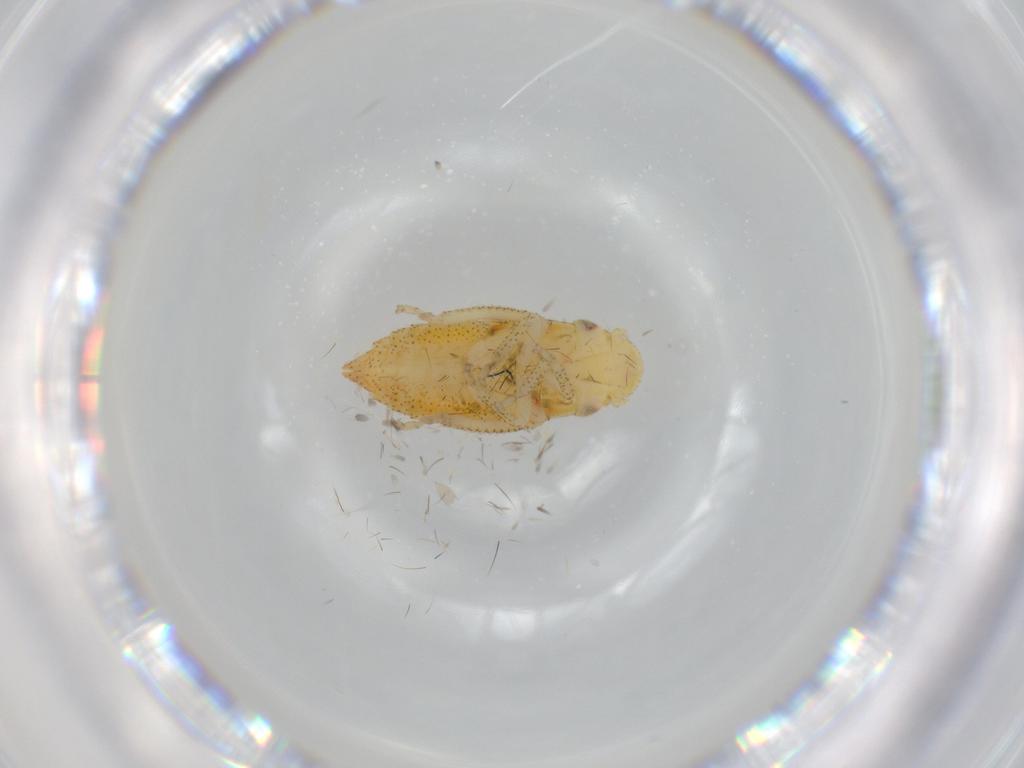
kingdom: Animalia
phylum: Arthropoda
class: Insecta
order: Hemiptera
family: Cicadellidae
